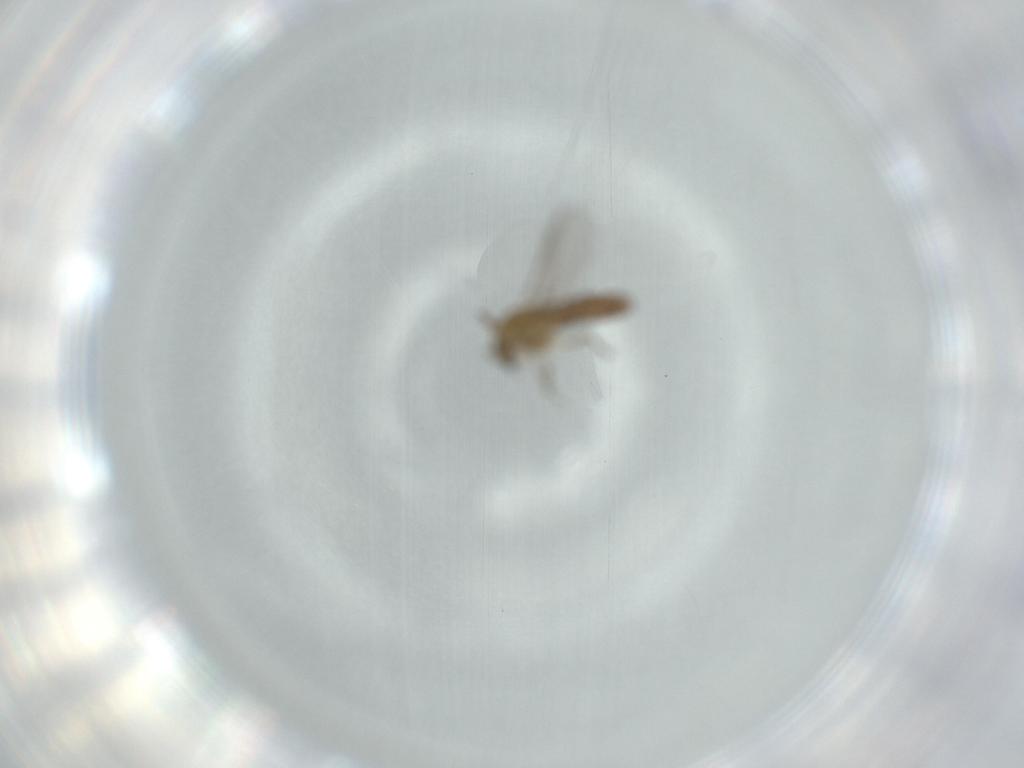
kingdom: Animalia
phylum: Arthropoda
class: Insecta
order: Diptera
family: Chironomidae
